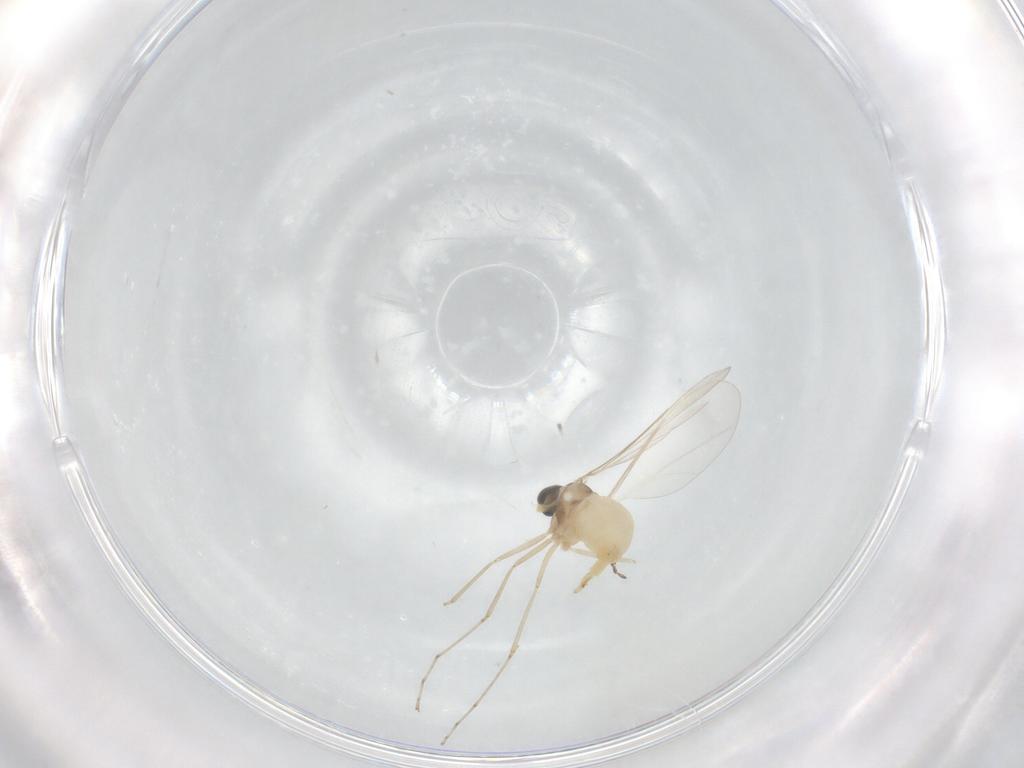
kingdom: Animalia
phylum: Arthropoda
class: Insecta
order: Diptera
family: Cecidomyiidae
